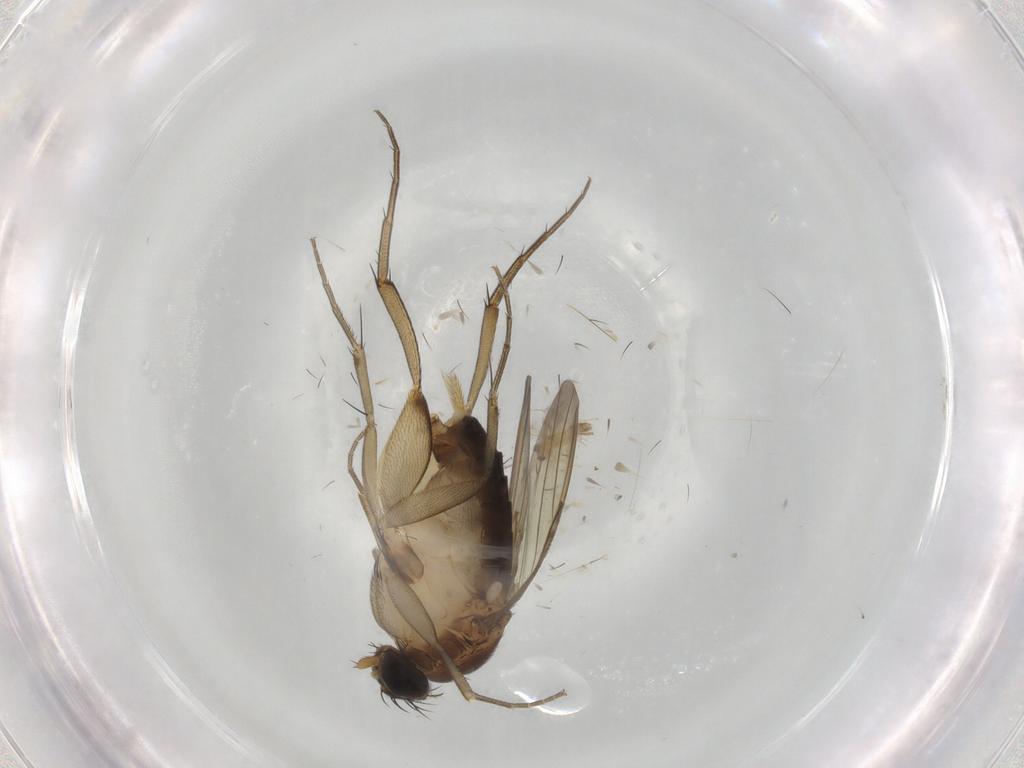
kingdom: Animalia
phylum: Arthropoda
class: Insecta
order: Diptera
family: Phoridae
